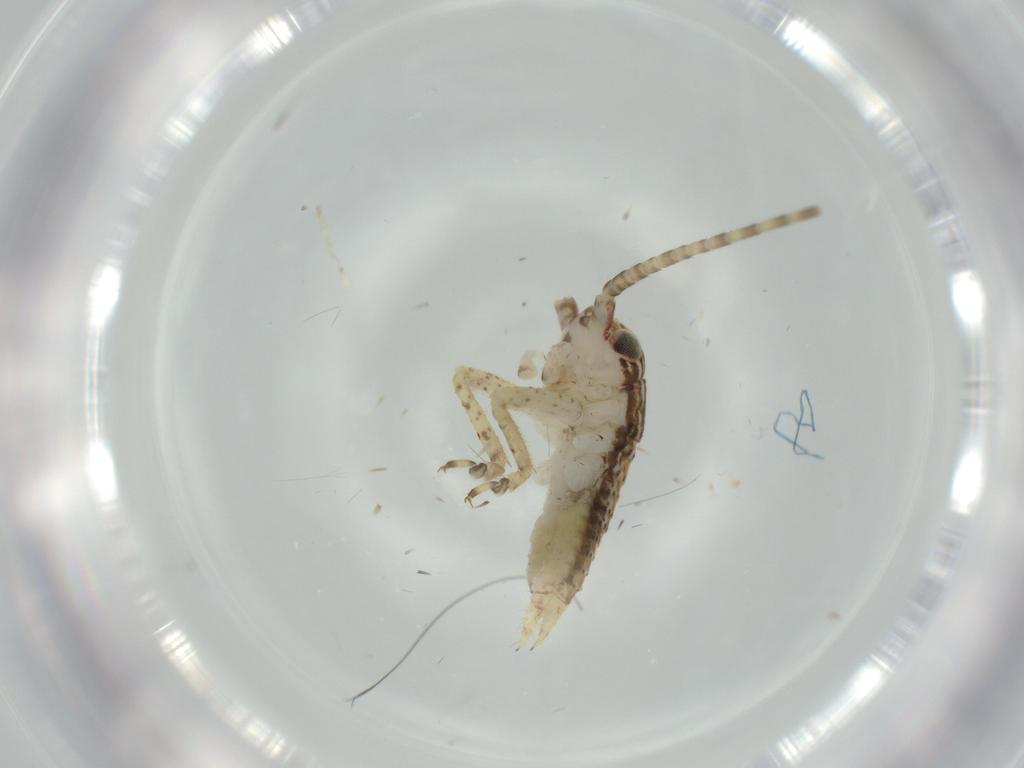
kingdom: Animalia
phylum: Arthropoda
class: Insecta
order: Orthoptera
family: Gryllidae
